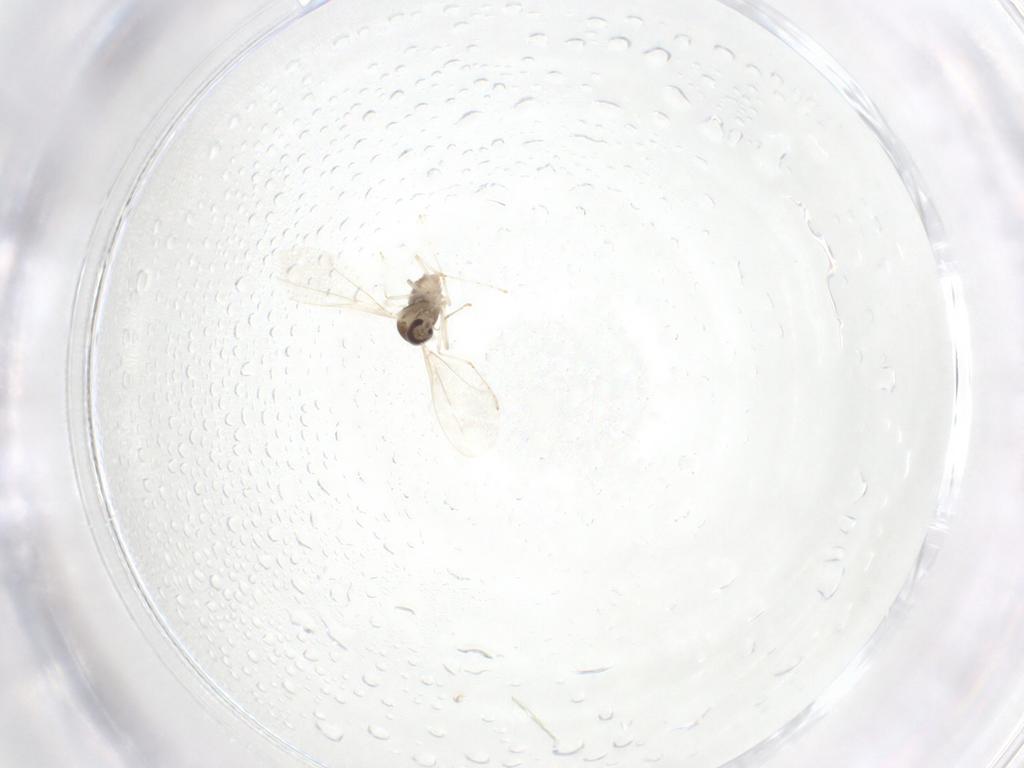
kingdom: Animalia
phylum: Arthropoda
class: Insecta
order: Diptera
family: Cecidomyiidae
